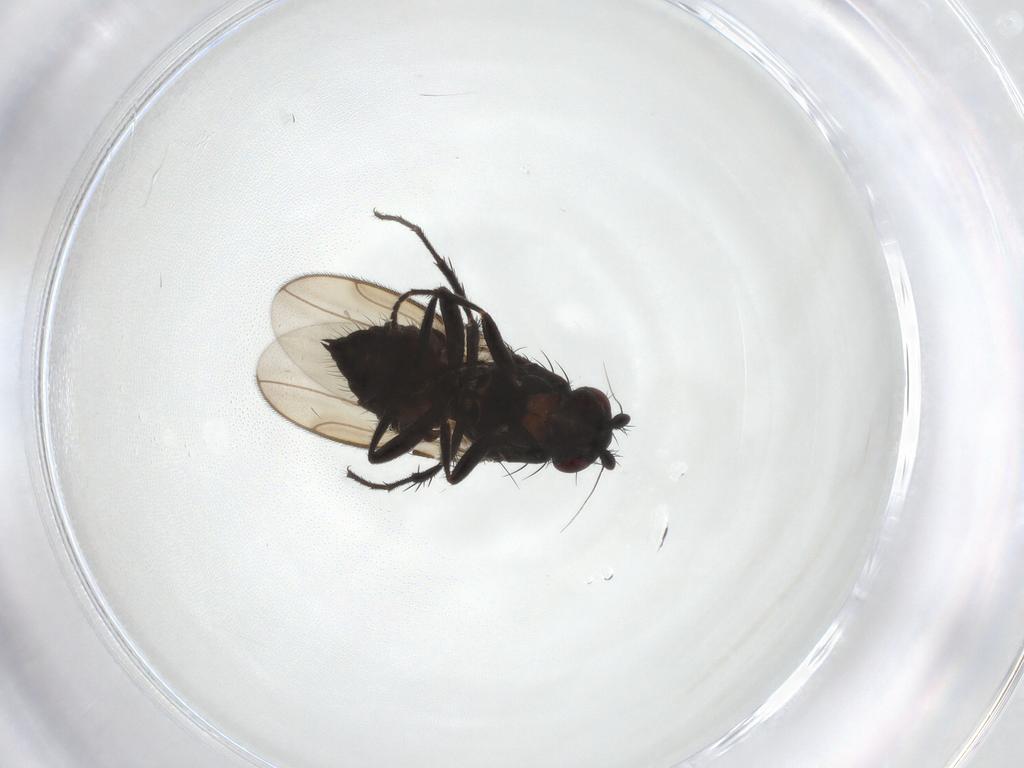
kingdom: Animalia
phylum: Arthropoda
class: Insecta
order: Diptera
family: Sphaeroceridae
